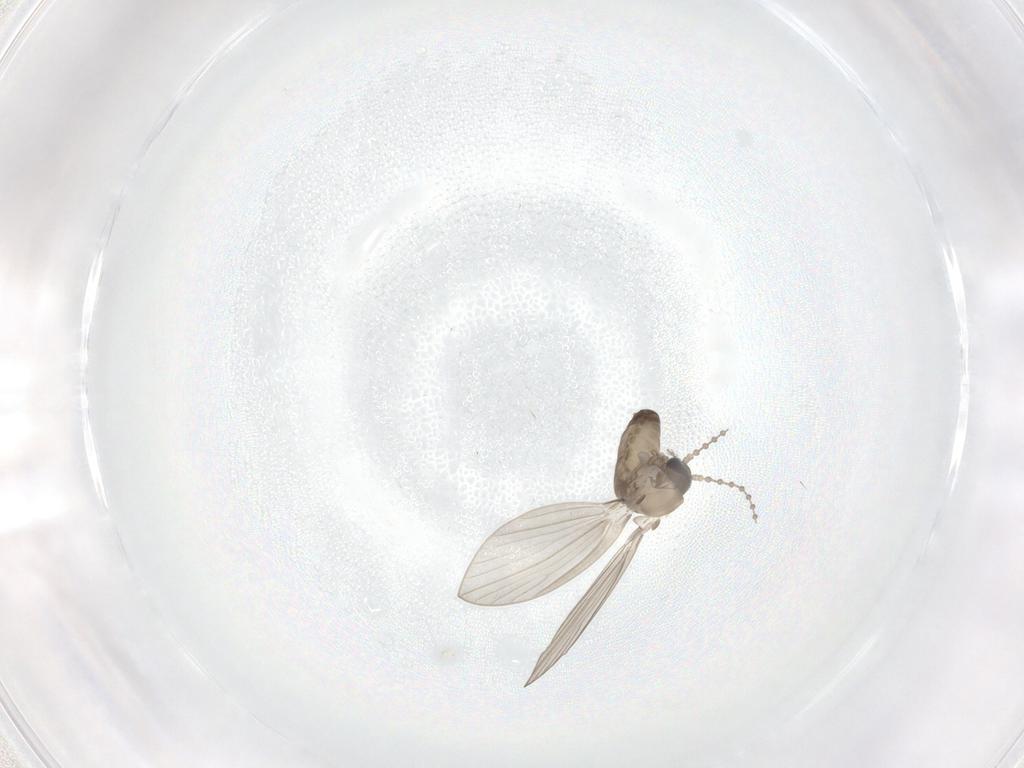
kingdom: Animalia
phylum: Arthropoda
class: Insecta
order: Diptera
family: Psychodidae
